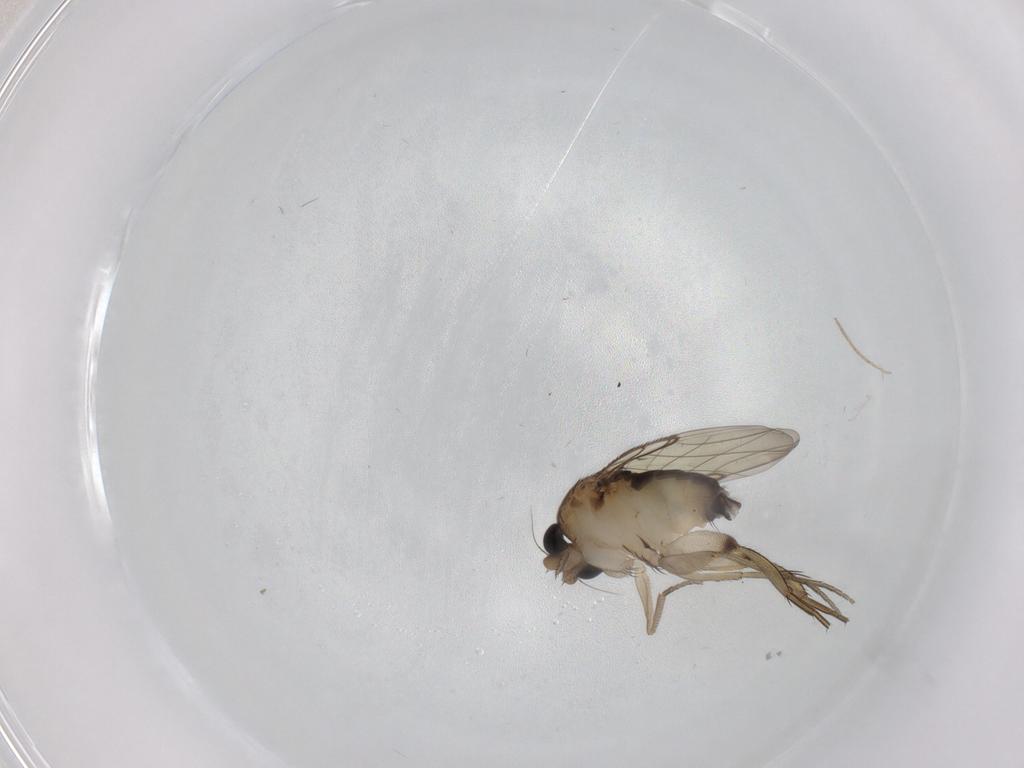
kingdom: Animalia
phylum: Arthropoda
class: Insecta
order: Diptera
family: Phoridae
